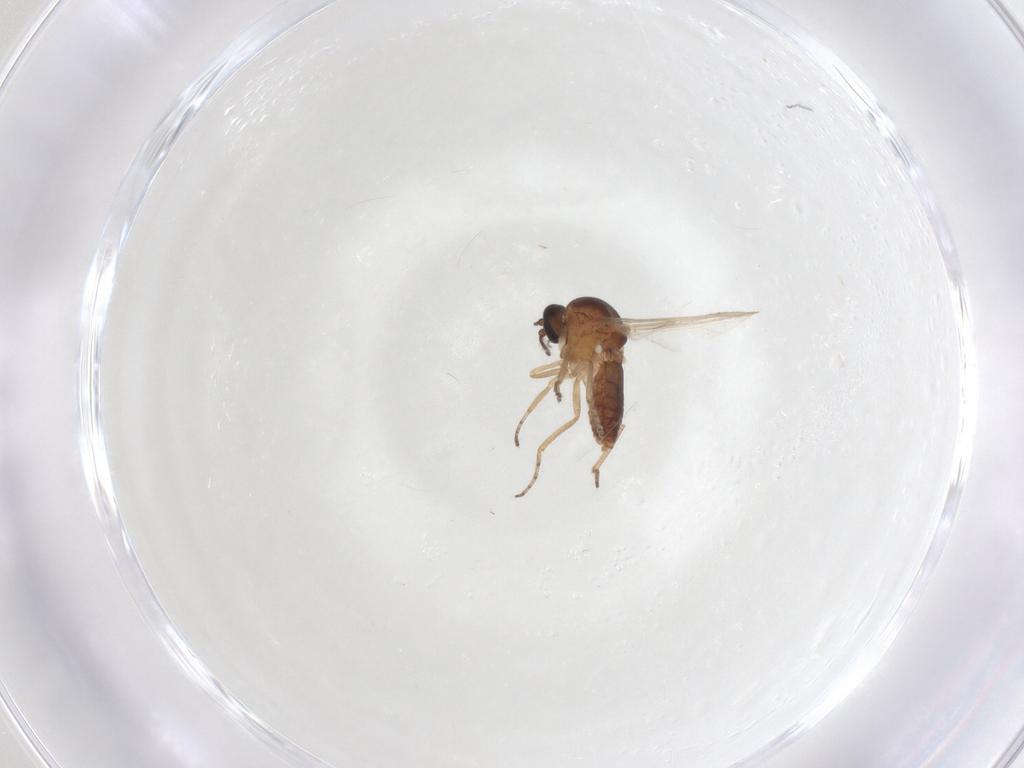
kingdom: Animalia
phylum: Arthropoda
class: Insecta
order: Diptera
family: Ceratopogonidae
